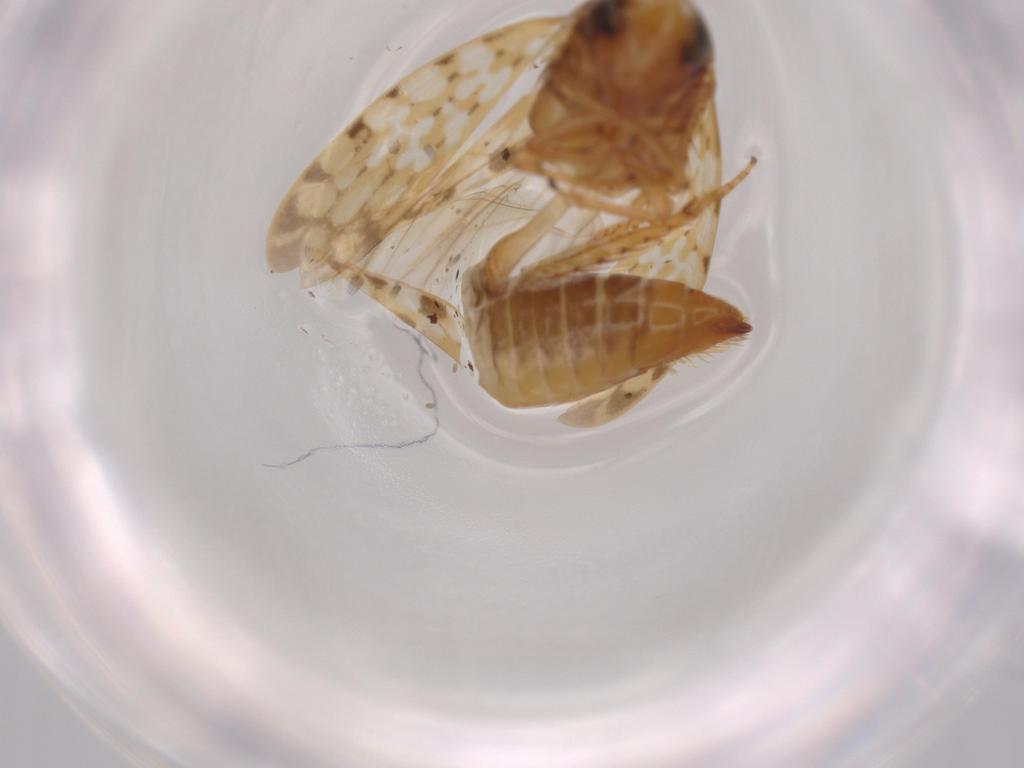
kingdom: Animalia
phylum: Arthropoda
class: Insecta
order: Hemiptera
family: Cicadellidae
